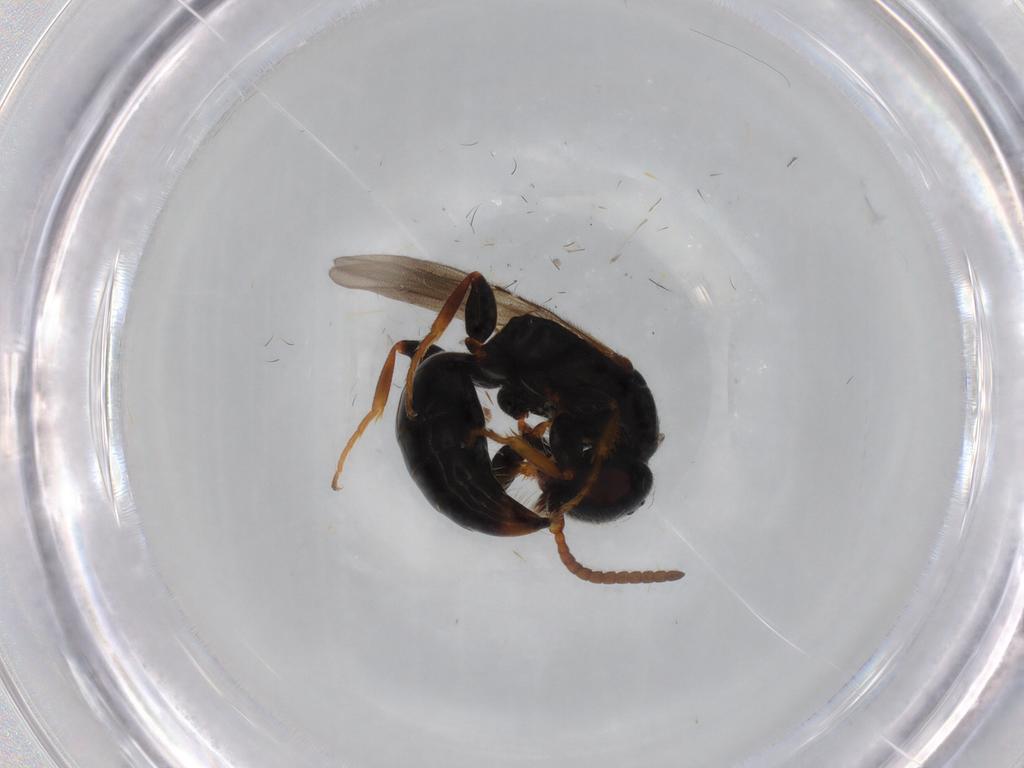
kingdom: Animalia
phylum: Arthropoda
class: Insecta
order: Hymenoptera
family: Bethylidae
